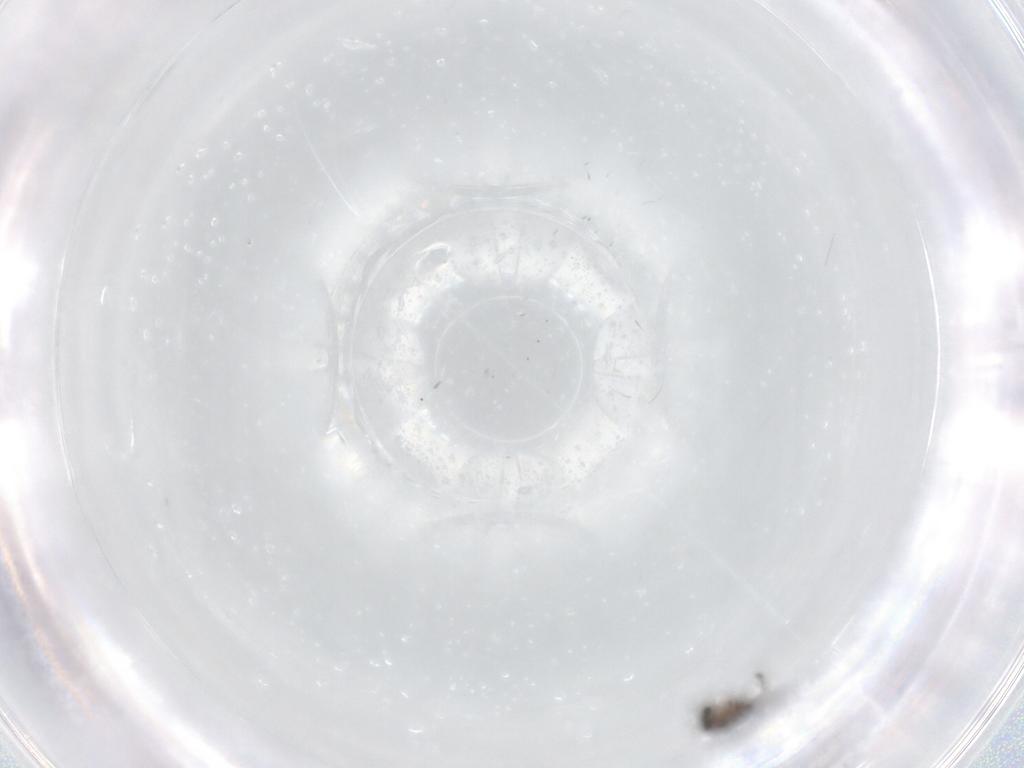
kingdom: Animalia
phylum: Arthropoda
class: Arachnida
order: Araneae
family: Pholcidae
